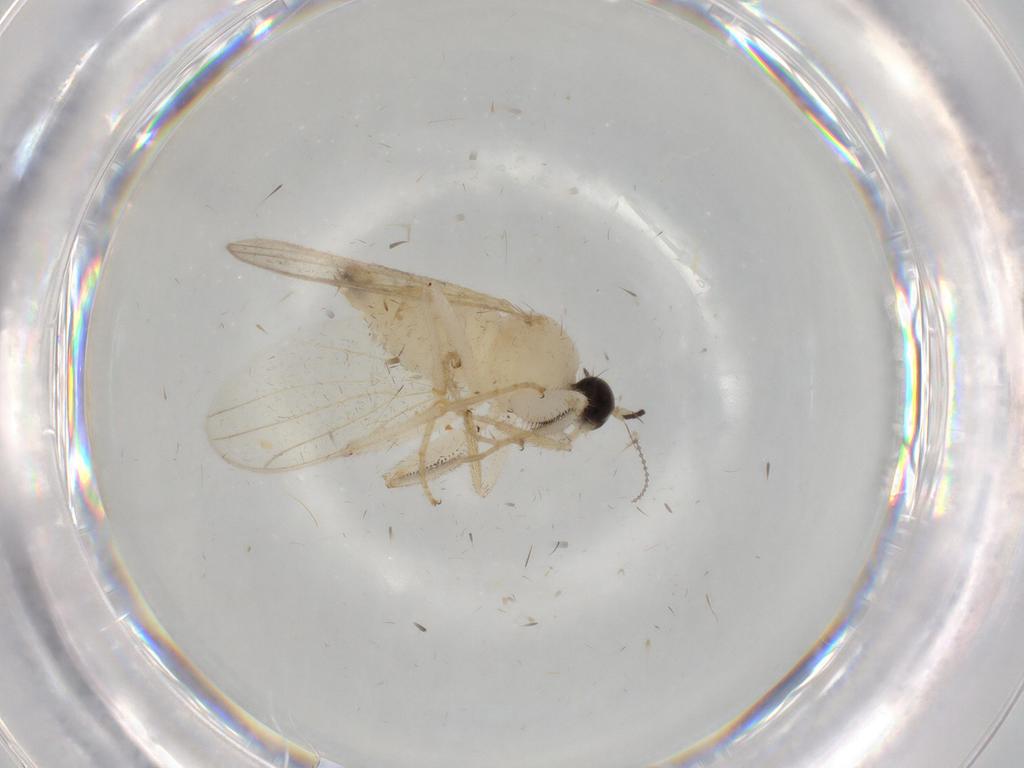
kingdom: Animalia
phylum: Arthropoda
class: Insecta
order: Diptera
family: Hybotidae
